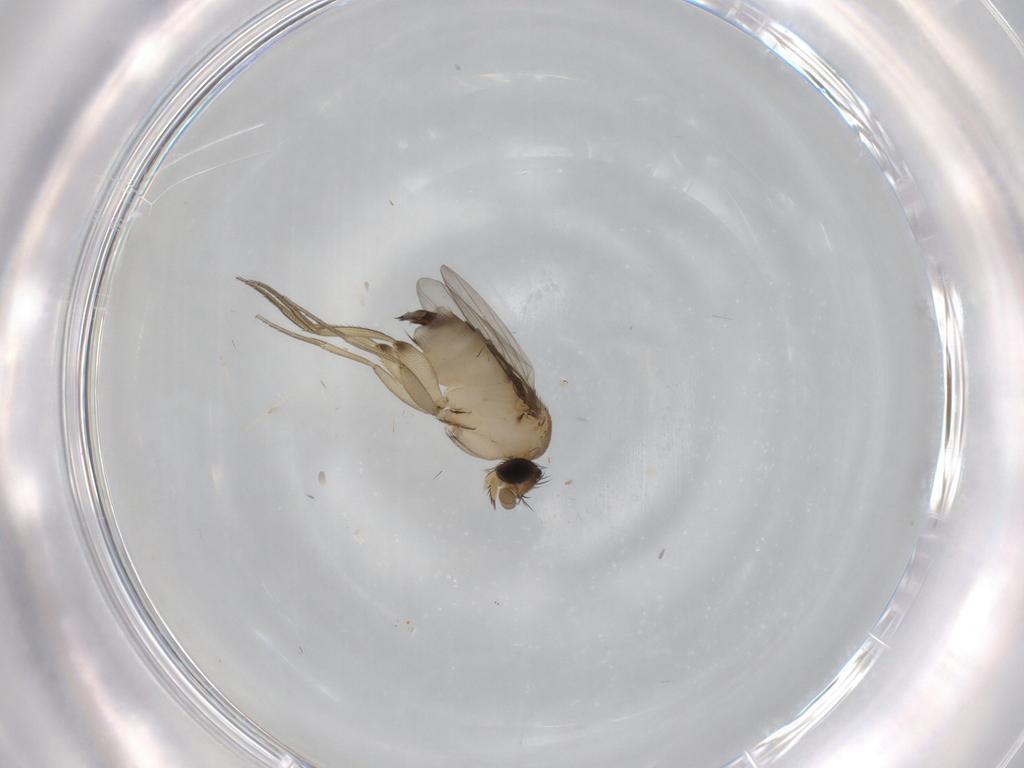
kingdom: Animalia
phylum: Arthropoda
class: Insecta
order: Diptera
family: Phoridae
